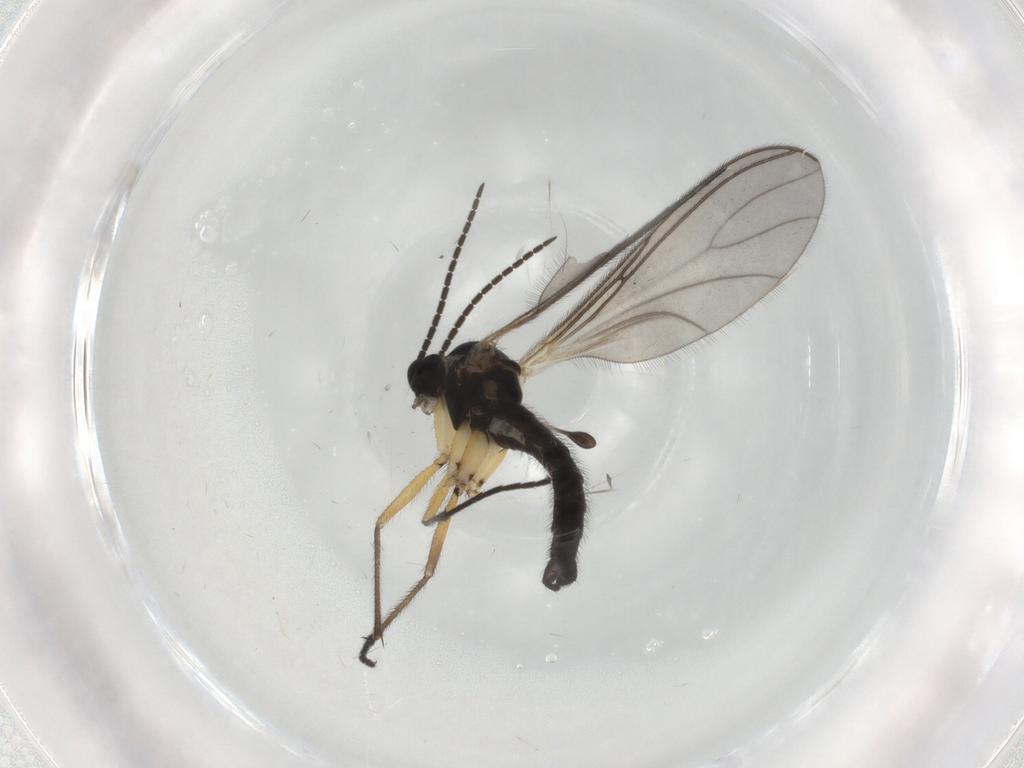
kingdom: Animalia
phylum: Arthropoda
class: Insecta
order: Diptera
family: Sciaridae
